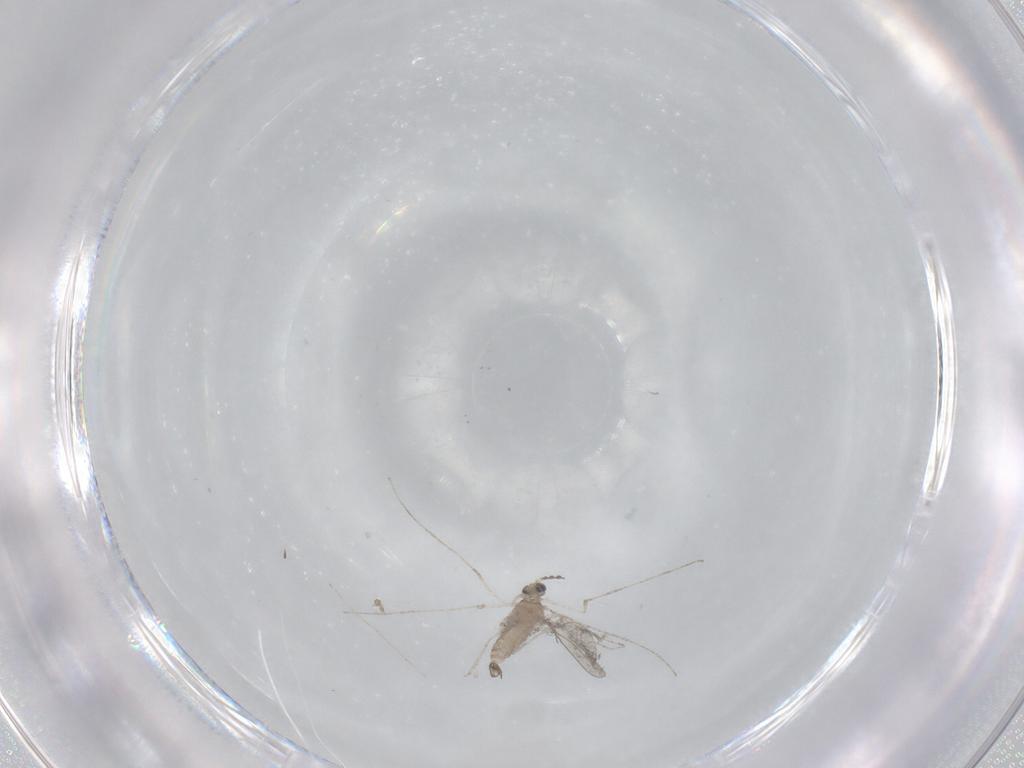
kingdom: Animalia
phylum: Arthropoda
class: Insecta
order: Diptera
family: Cecidomyiidae
